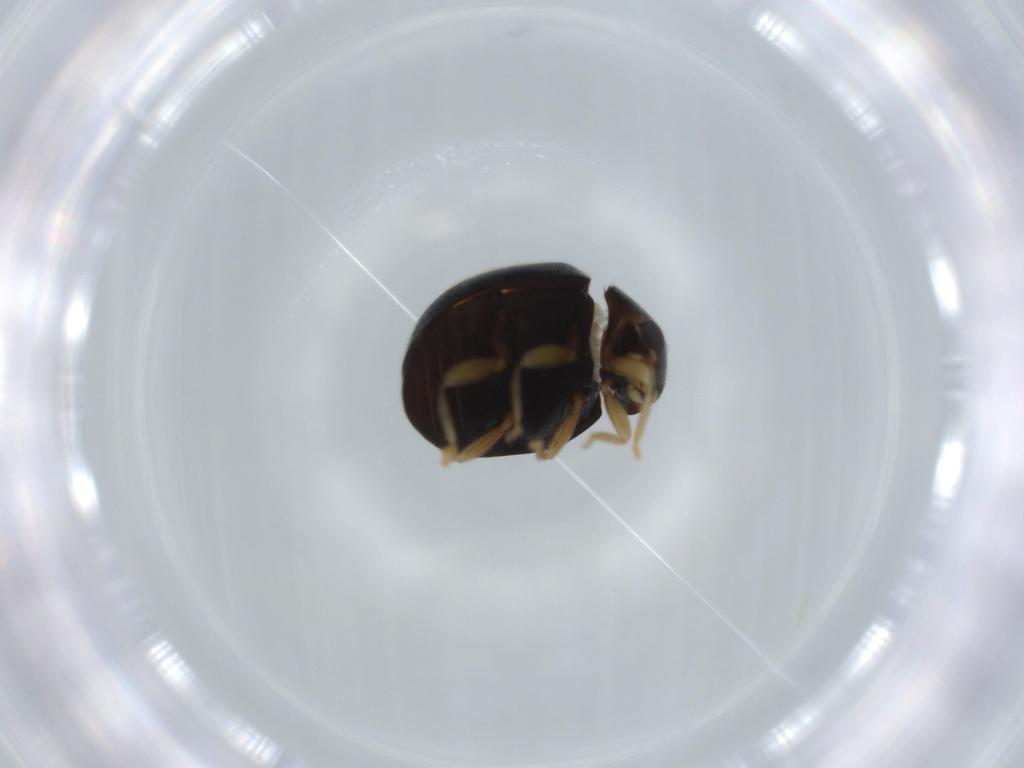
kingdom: Animalia
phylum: Arthropoda
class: Insecta
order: Coleoptera
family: Coccinellidae
